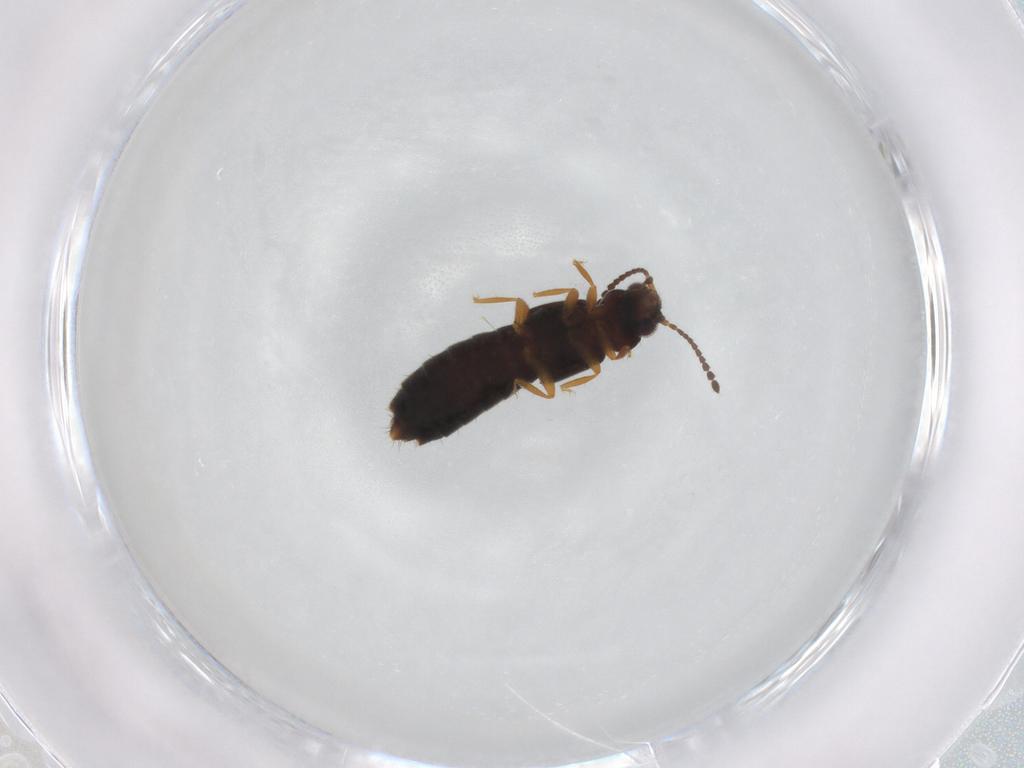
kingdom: Animalia
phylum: Arthropoda
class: Insecta
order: Coleoptera
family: Staphylinidae
